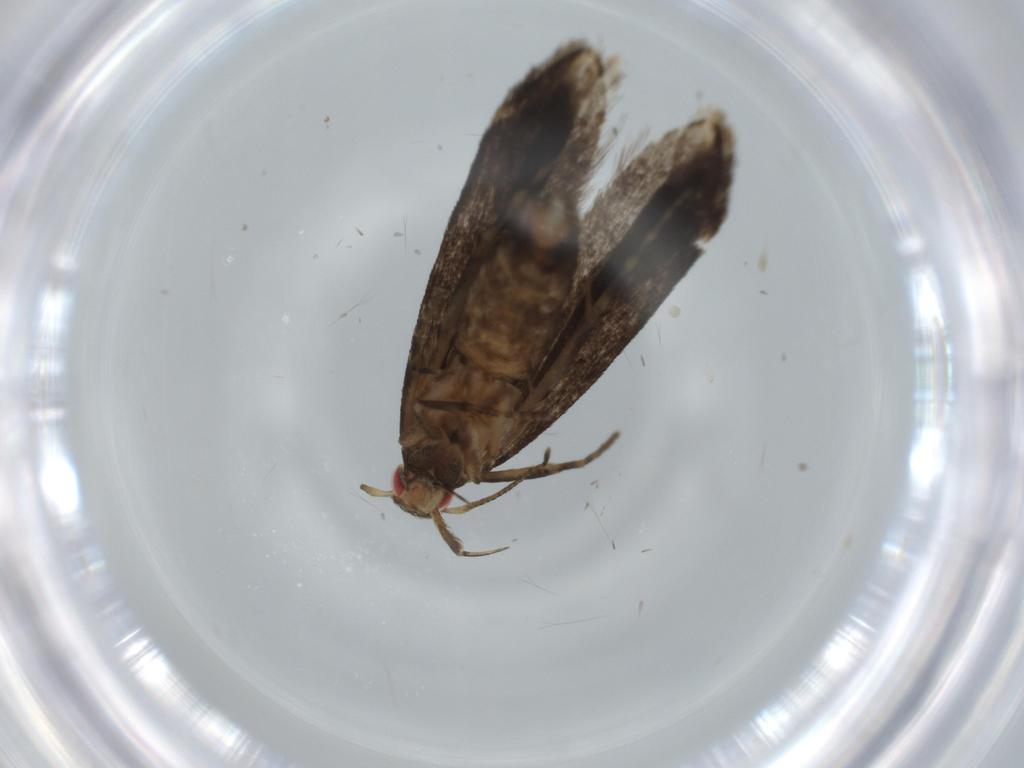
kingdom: Animalia
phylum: Arthropoda
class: Insecta
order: Lepidoptera
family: Gelechiidae
